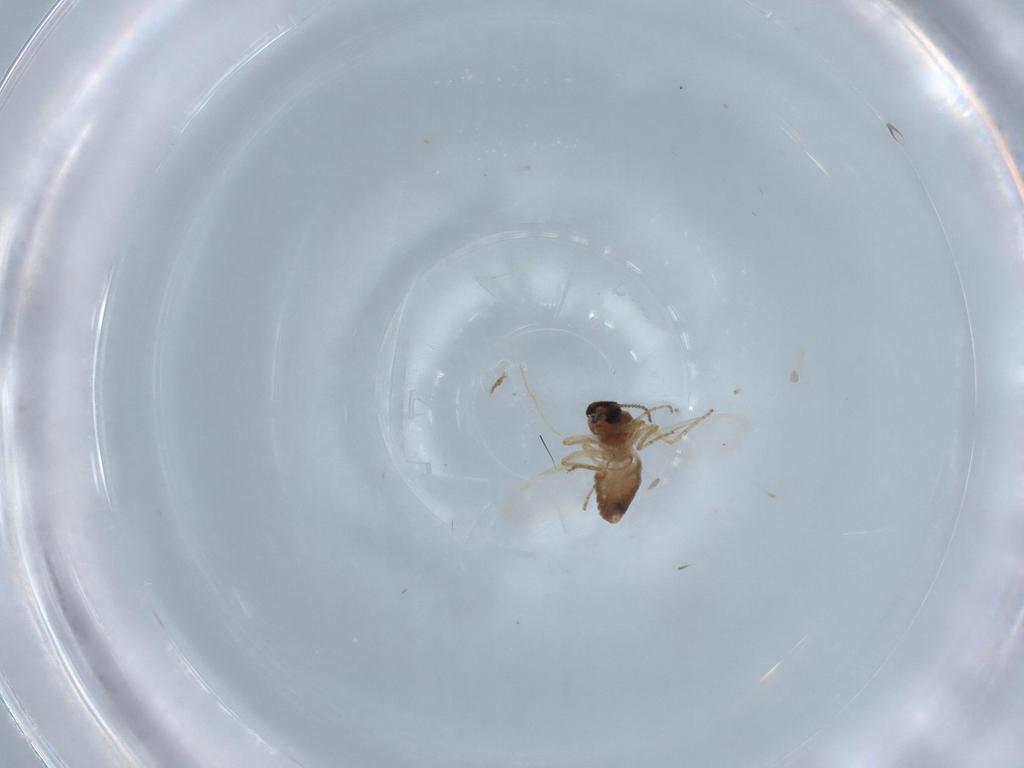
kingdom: Animalia
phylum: Arthropoda
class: Insecta
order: Diptera
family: Ceratopogonidae
